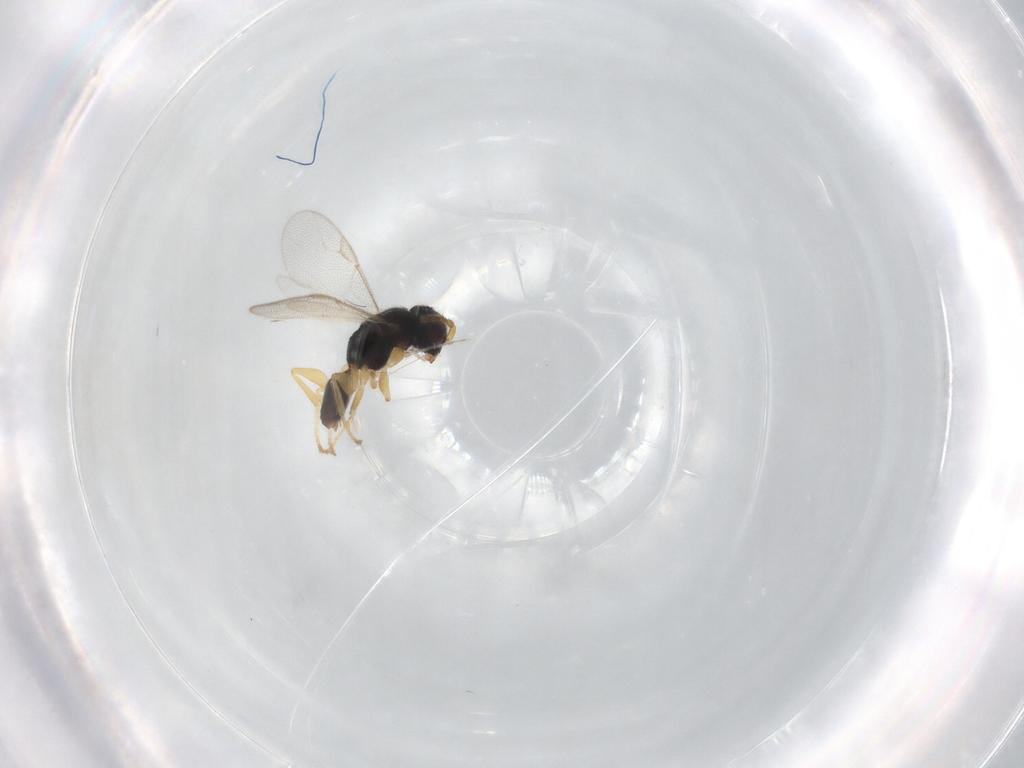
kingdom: Animalia
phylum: Arthropoda
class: Insecta
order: Hymenoptera
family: Dryinidae
